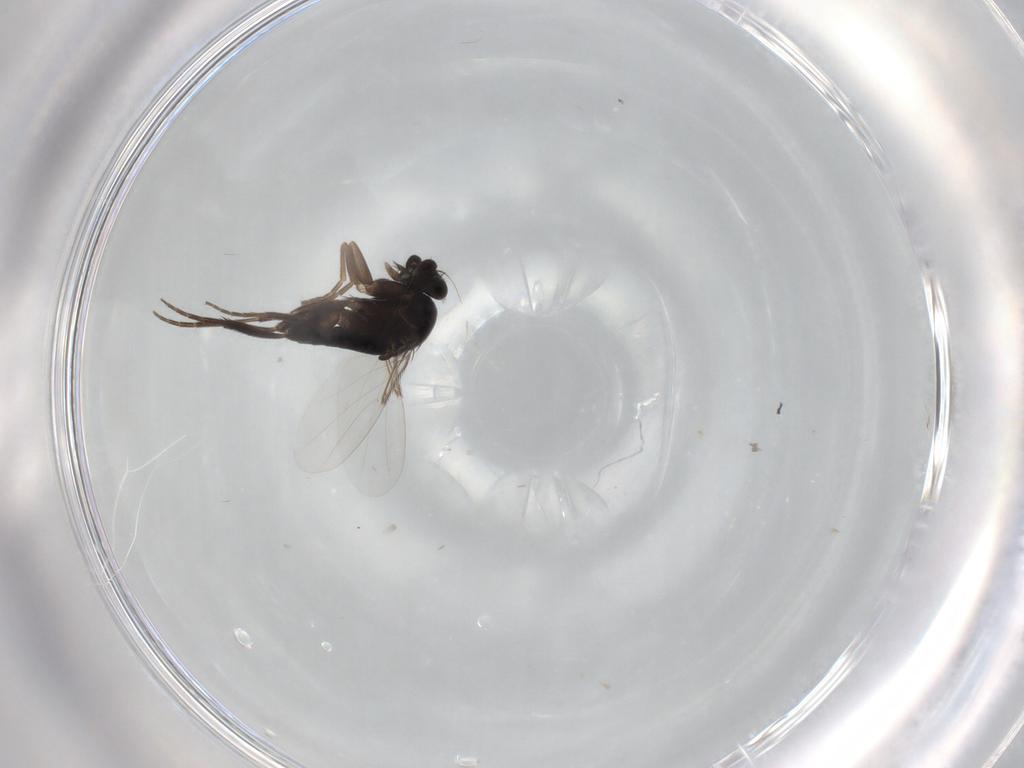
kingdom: Animalia
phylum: Arthropoda
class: Insecta
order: Diptera
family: Phoridae
